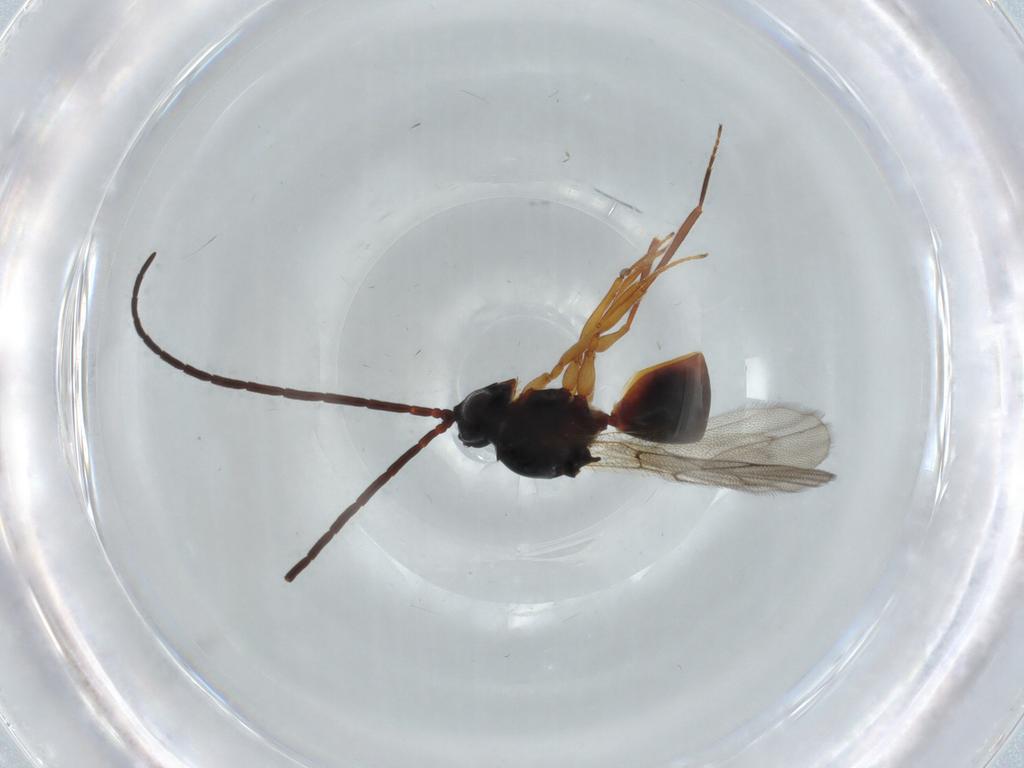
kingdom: Animalia
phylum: Arthropoda
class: Insecta
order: Hymenoptera
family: Figitidae
